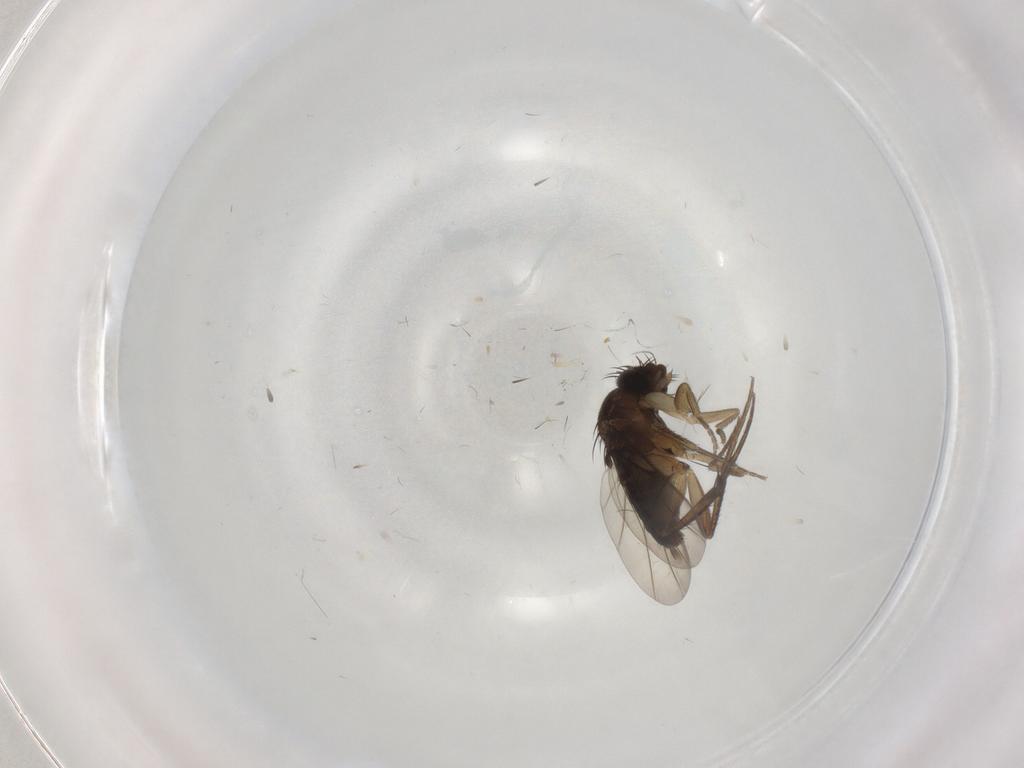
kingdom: Animalia
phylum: Arthropoda
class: Insecta
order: Diptera
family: Phoridae
